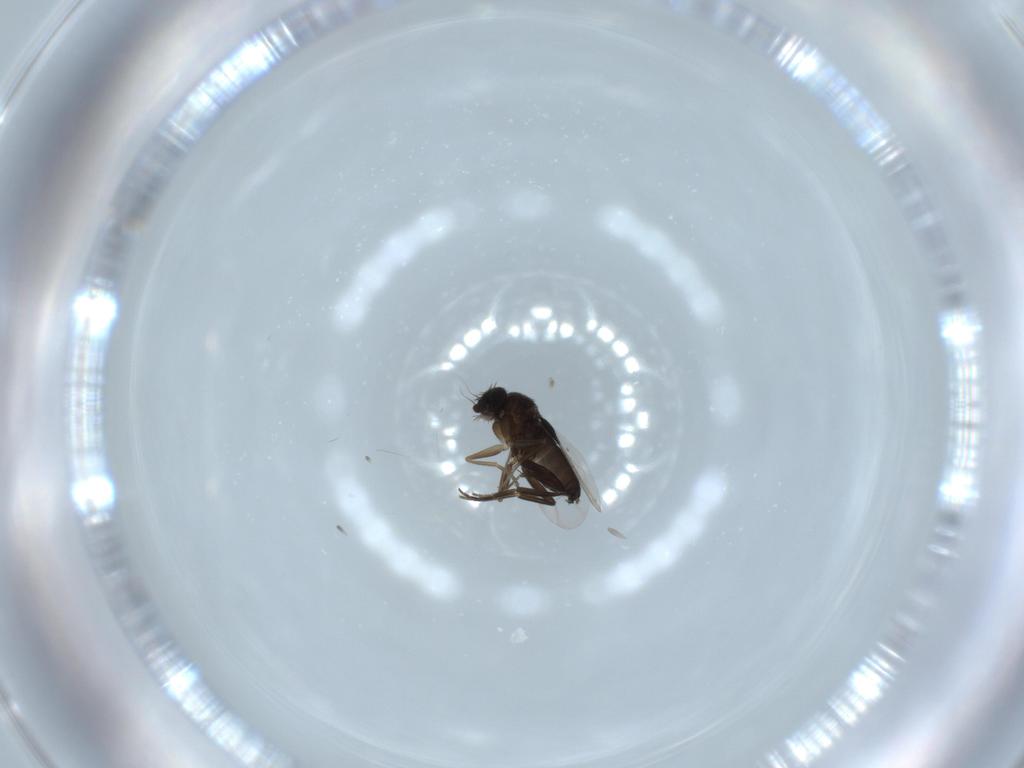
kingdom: Animalia
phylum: Arthropoda
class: Insecta
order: Diptera
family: Phoridae
